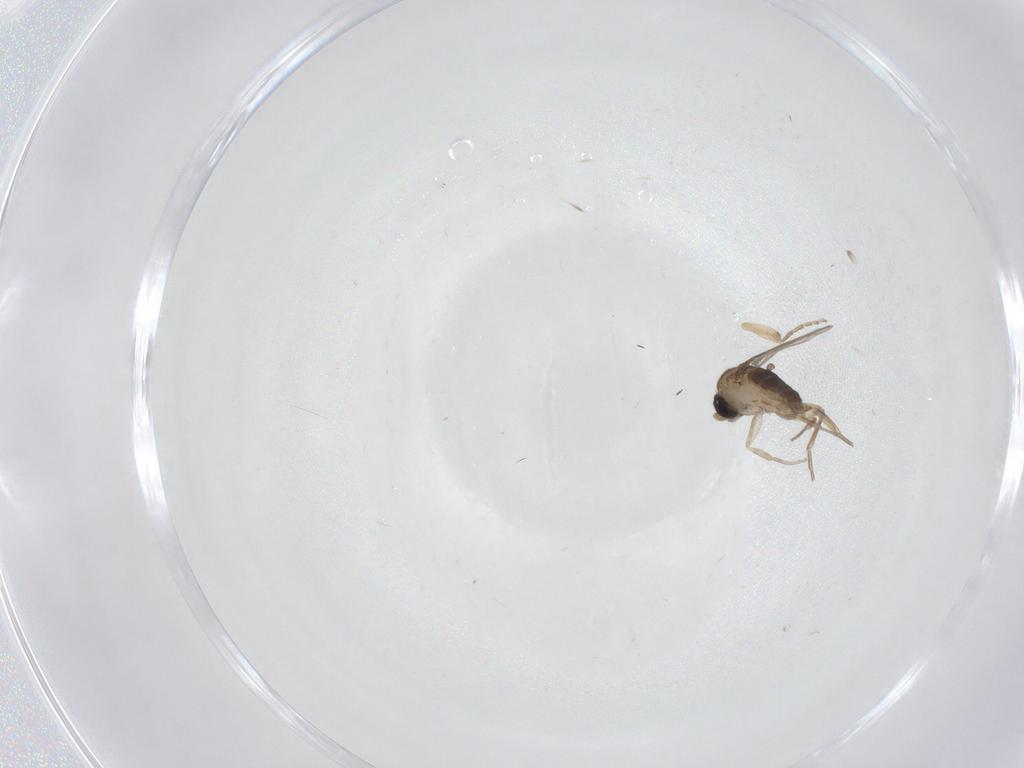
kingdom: Animalia
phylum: Arthropoda
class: Insecta
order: Diptera
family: Phoridae
